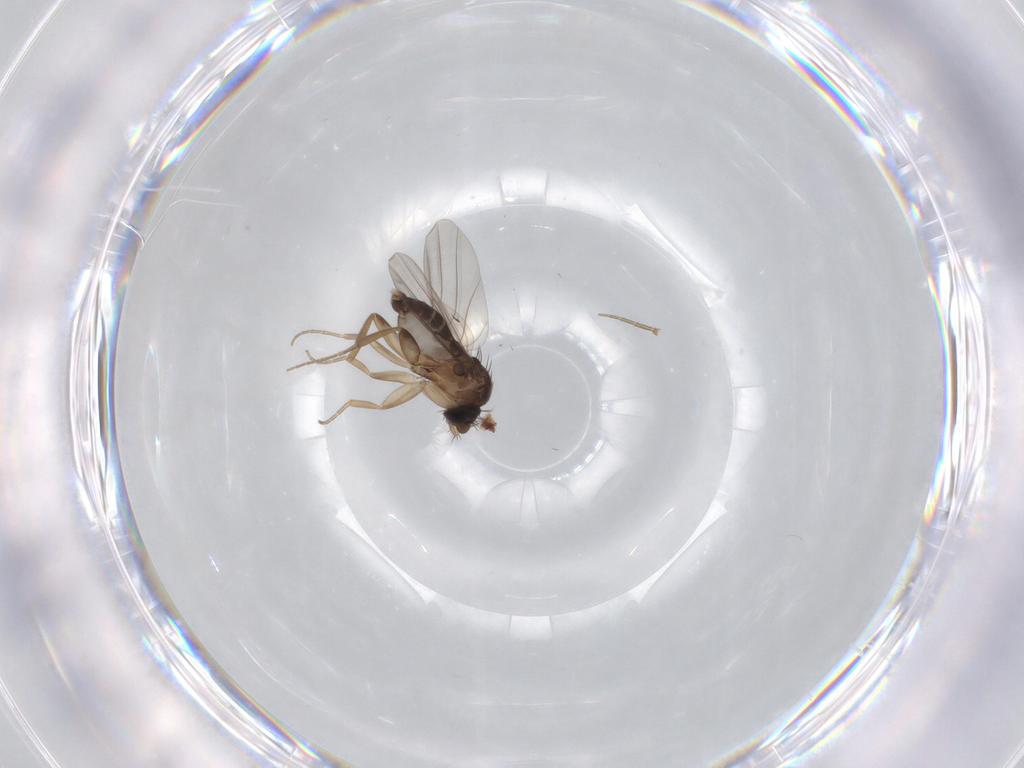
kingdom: Animalia
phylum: Arthropoda
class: Insecta
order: Diptera
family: Phoridae
